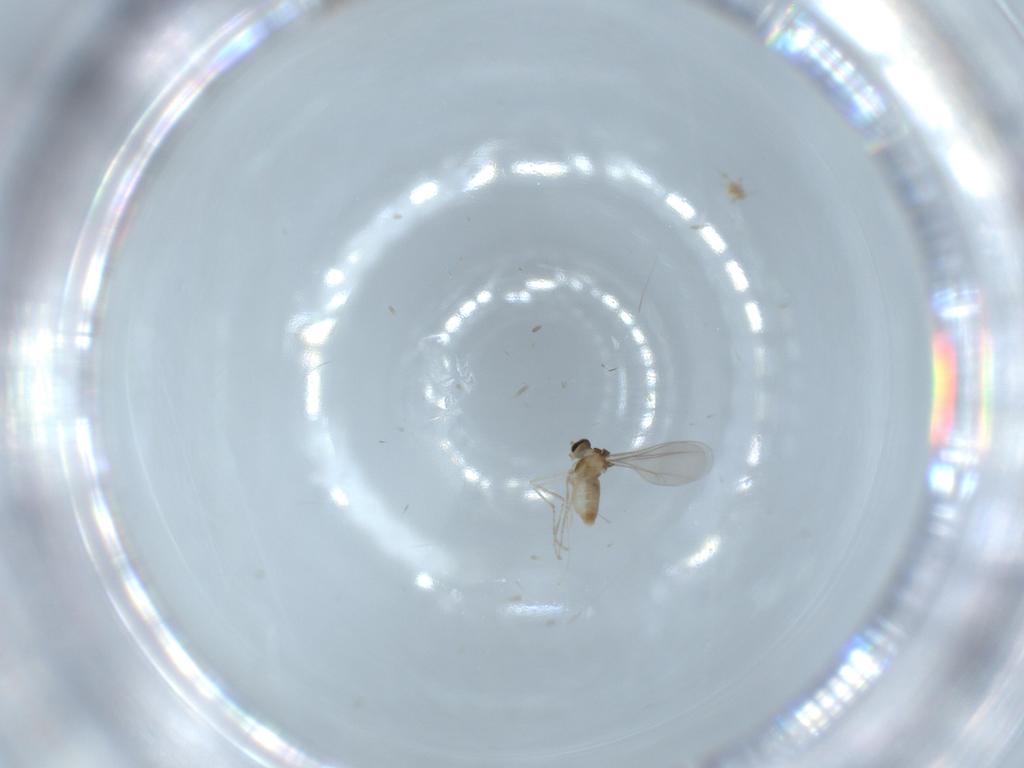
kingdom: Animalia
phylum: Arthropoda
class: Insecta
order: Diptera
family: Cecidomyiidae
